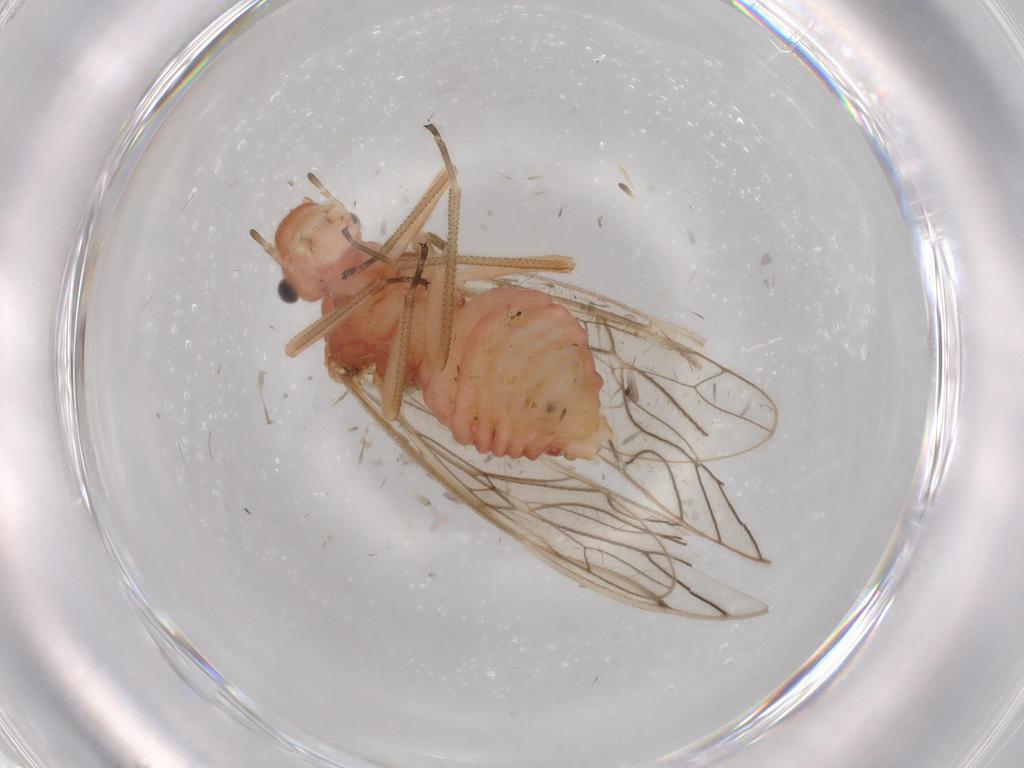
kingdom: Animalia
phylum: Arthropoda
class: Insecta
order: Psocodea
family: Amphipsocidae
